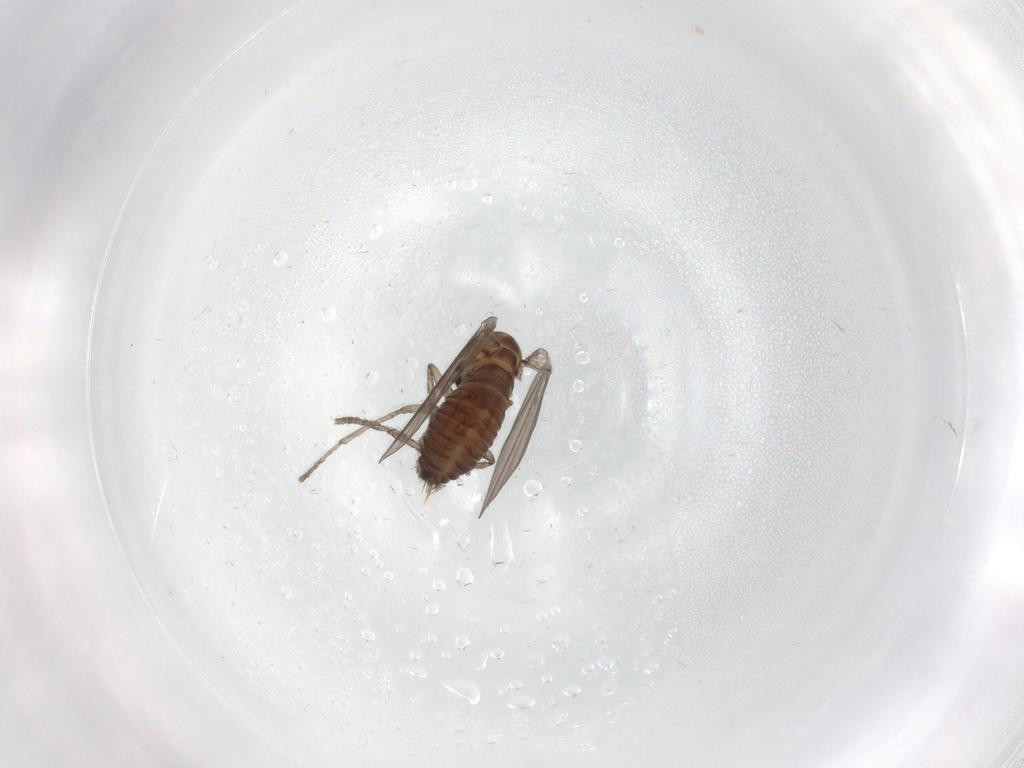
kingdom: Animalia
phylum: Arthropoda
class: Insecta
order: Diptera
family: Psychodidae
